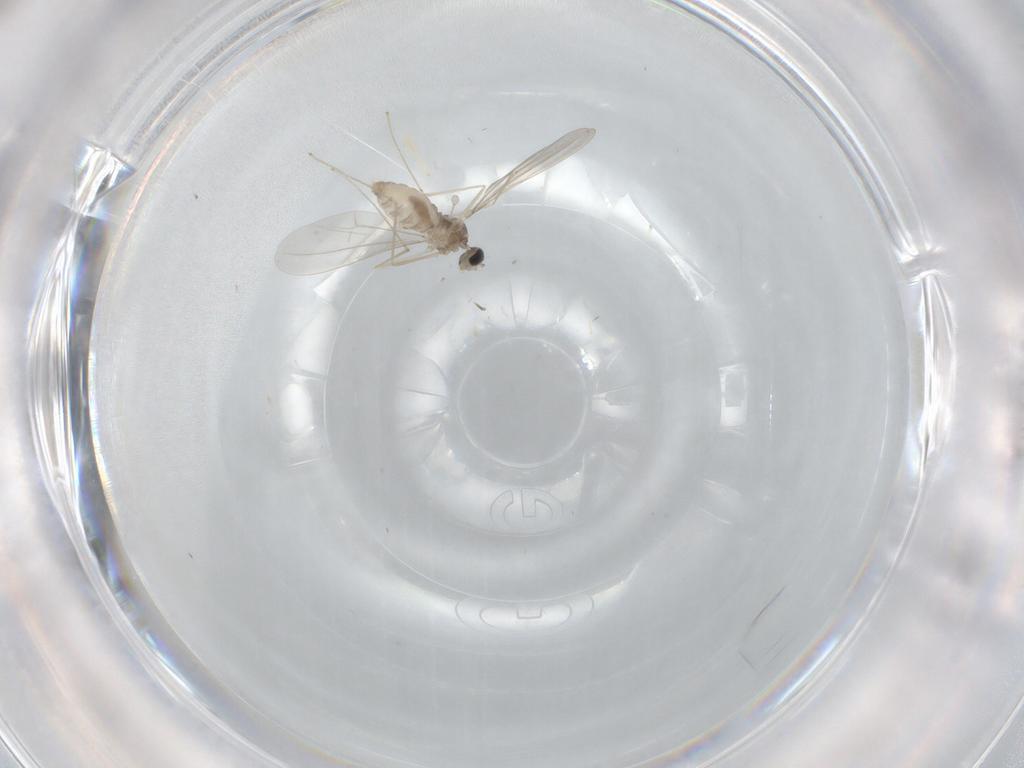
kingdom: Animalia
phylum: Arthropoda
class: Insecta
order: Diptera
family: Cecidomyiidae
